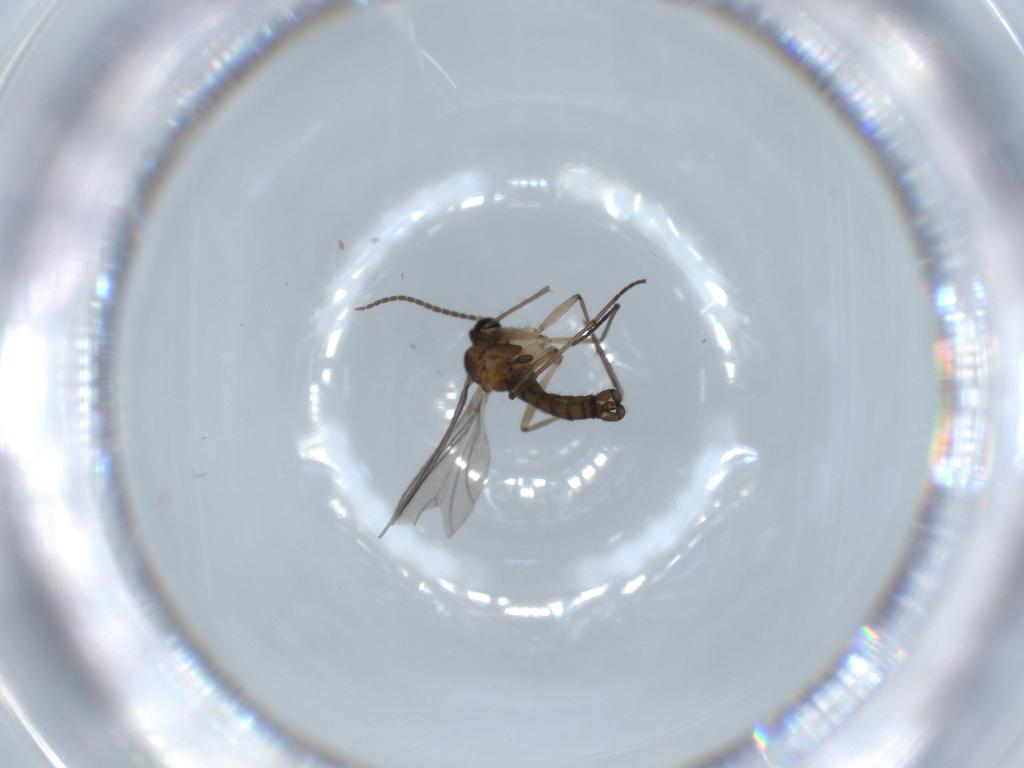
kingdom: Animalia
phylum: Arthropoda
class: Insecta
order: Diptera
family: Sciaridae
